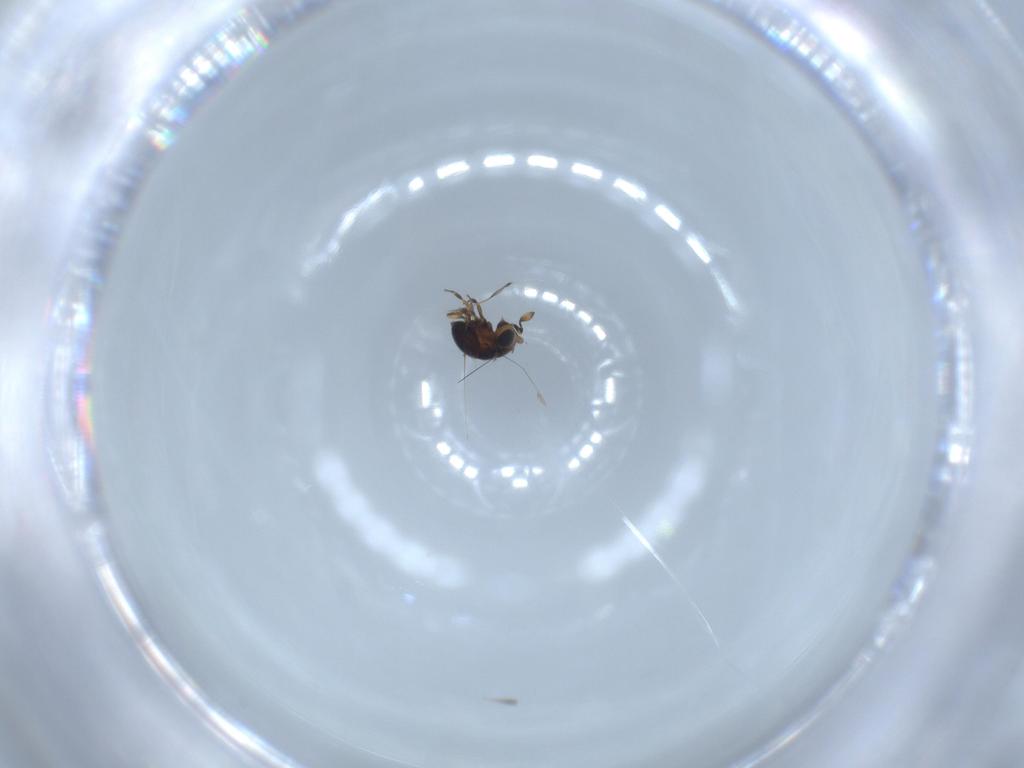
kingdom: Animalia
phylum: Arthropoda
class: Insecta
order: Hymenoptera
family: Scelionidae
